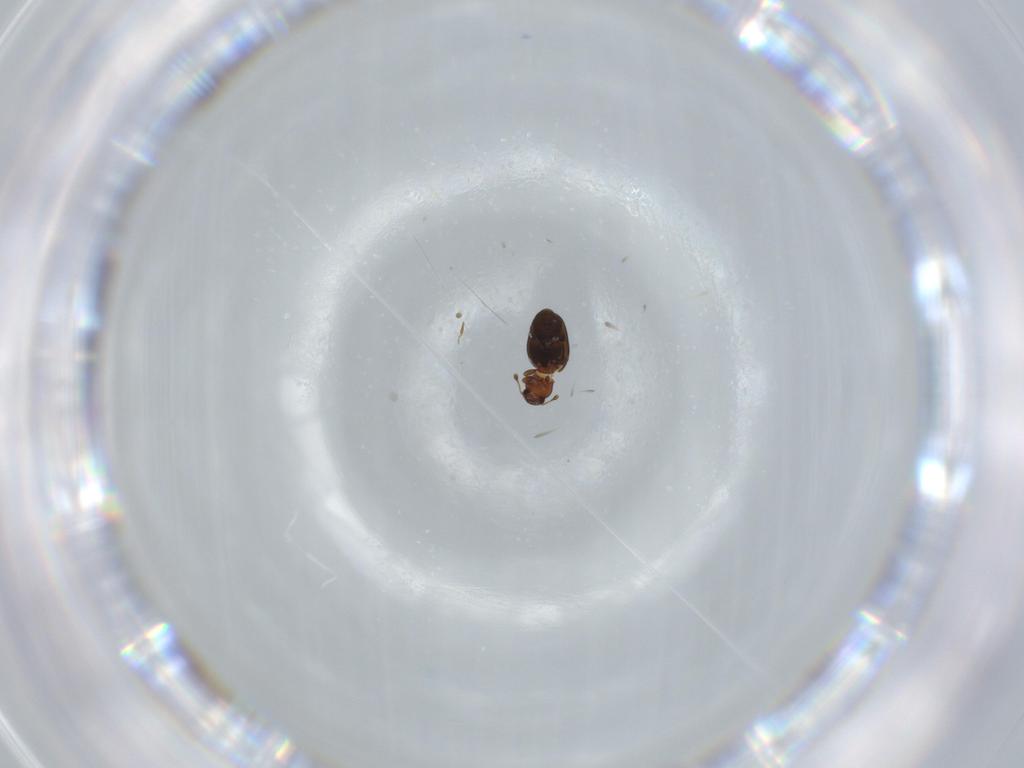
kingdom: Animalia
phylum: Arthropoda
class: Insecta
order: Coleoptera
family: Endomychidae
